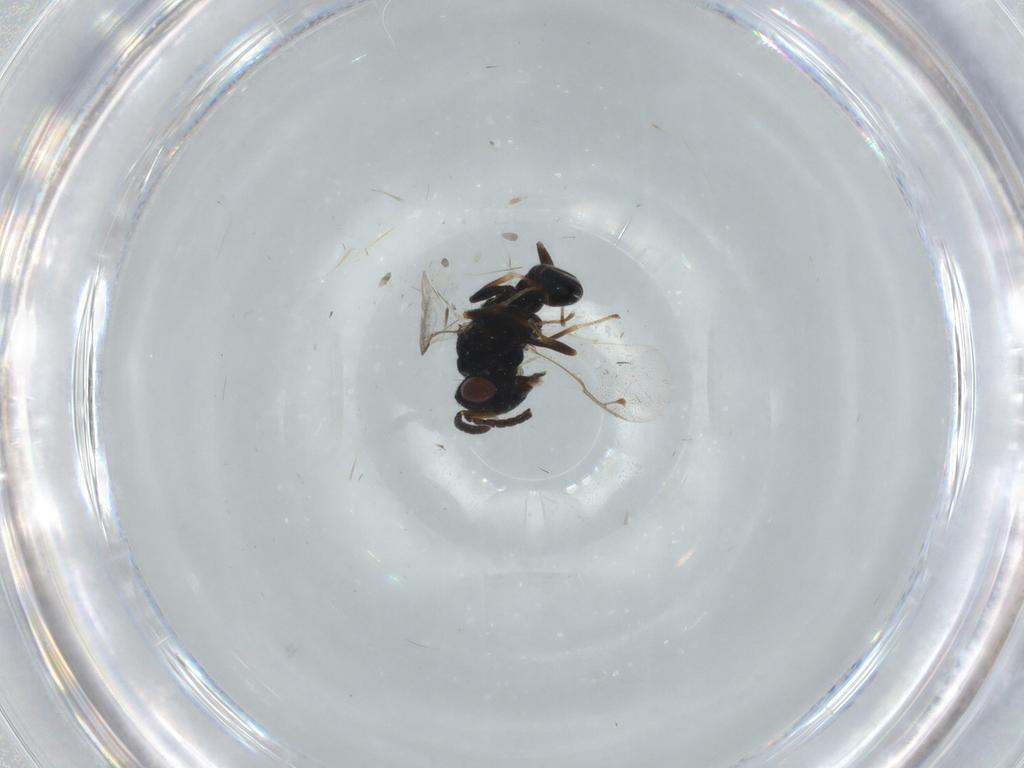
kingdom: Animalia
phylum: Arthropoda
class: Insecta
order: Hymenoptera
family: Pteromalidae
